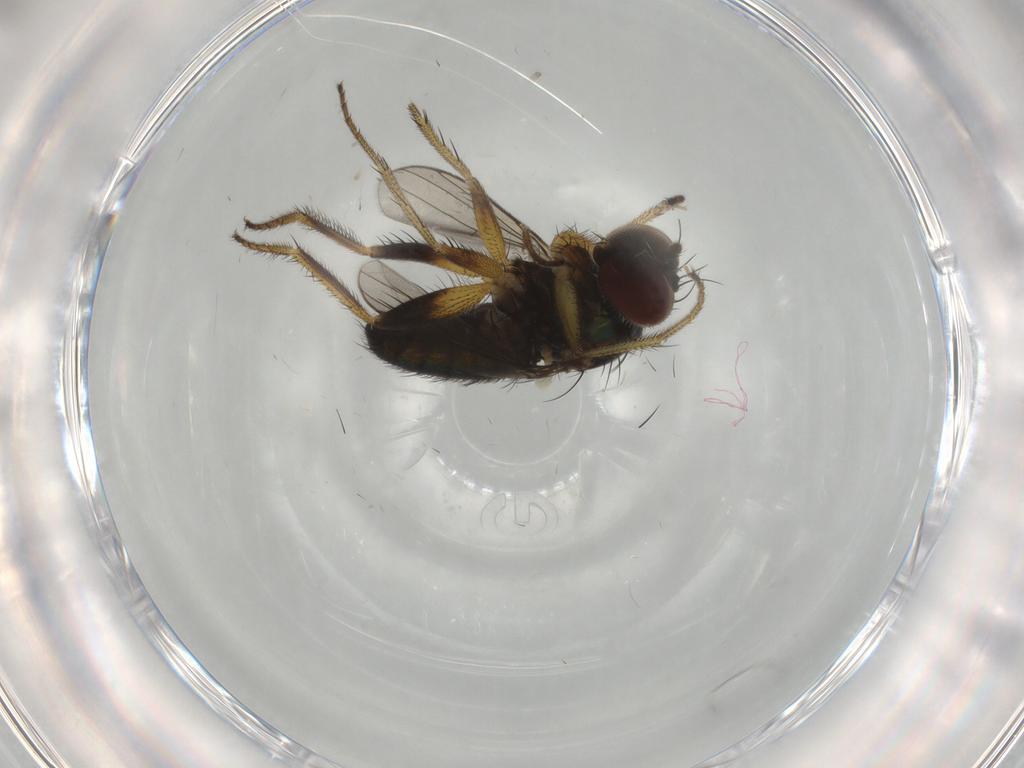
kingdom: Animalia
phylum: Arthropoda
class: Insecta
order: Diptera
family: Dolichopodidae
